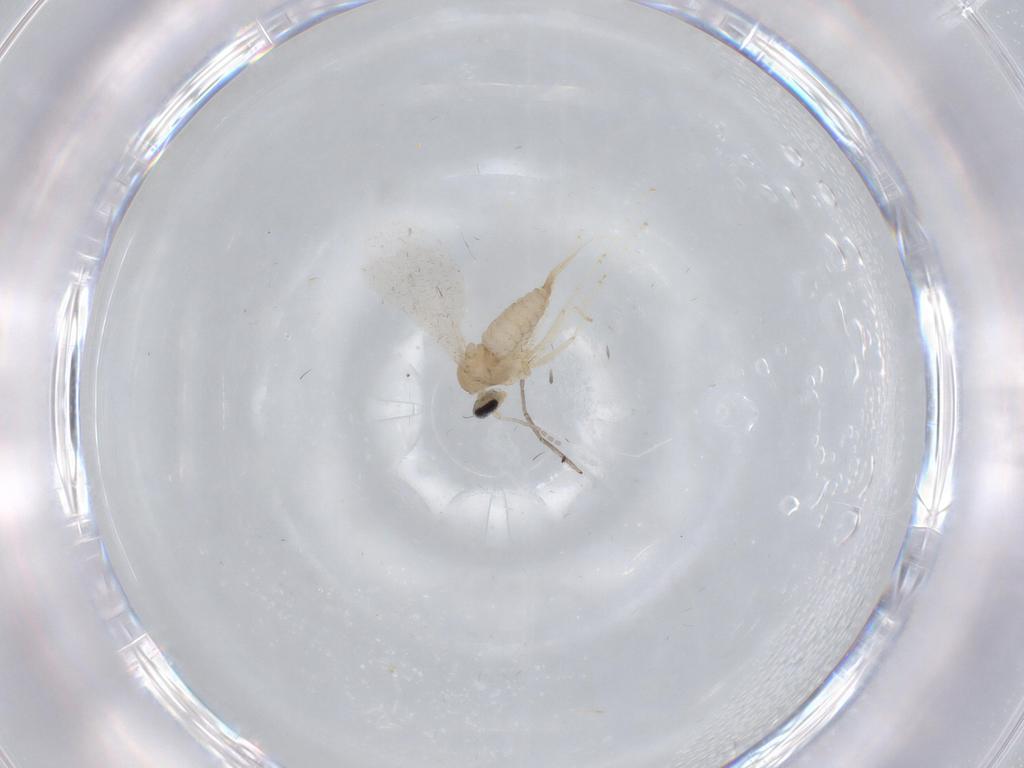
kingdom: Animalia
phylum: Arthropoda
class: Insecta
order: Diptera
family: Cecidomyiidae
